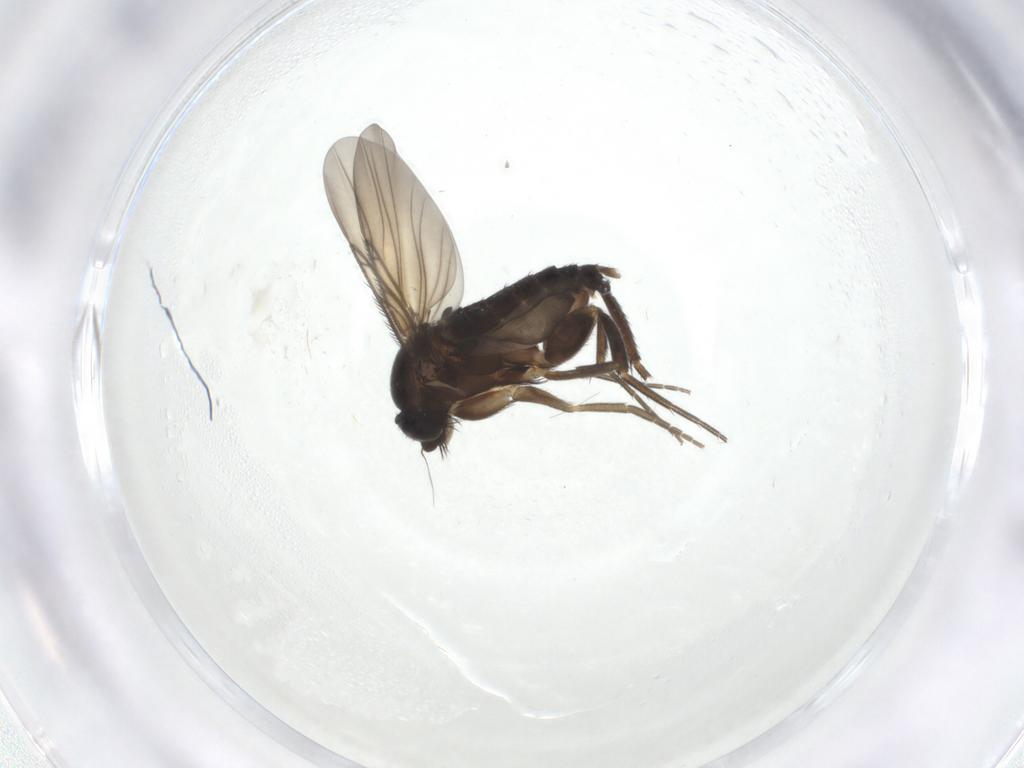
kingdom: Animalia
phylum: Arthropoda
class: Insecta
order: Diptera
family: Phoridae
